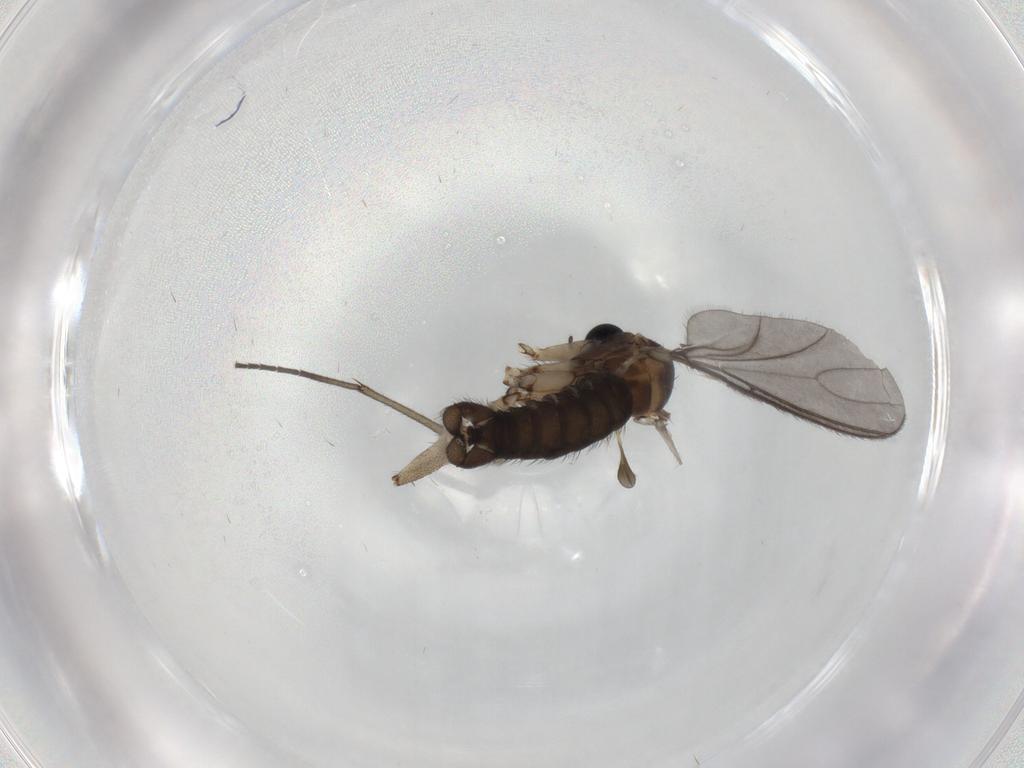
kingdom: Animalia
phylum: Arthropoda
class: Insecta
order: Diptera
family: Sciaridae
